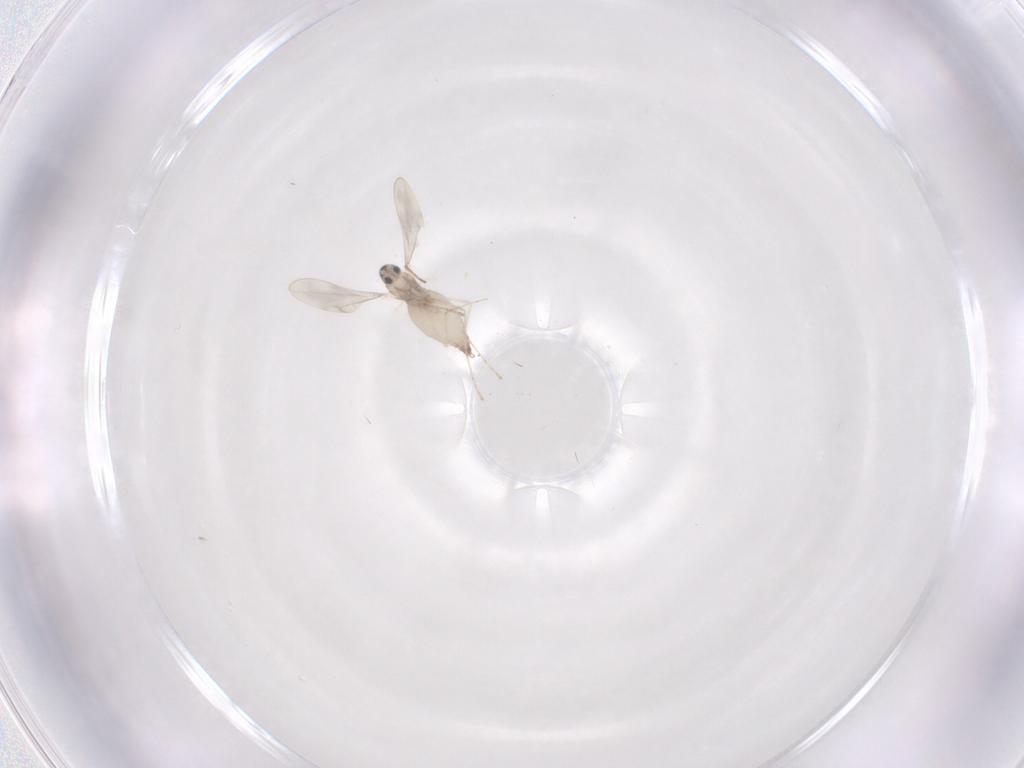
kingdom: Animalia
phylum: Arthropoda
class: Insecta
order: Diptera
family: Cecidomyiidae
